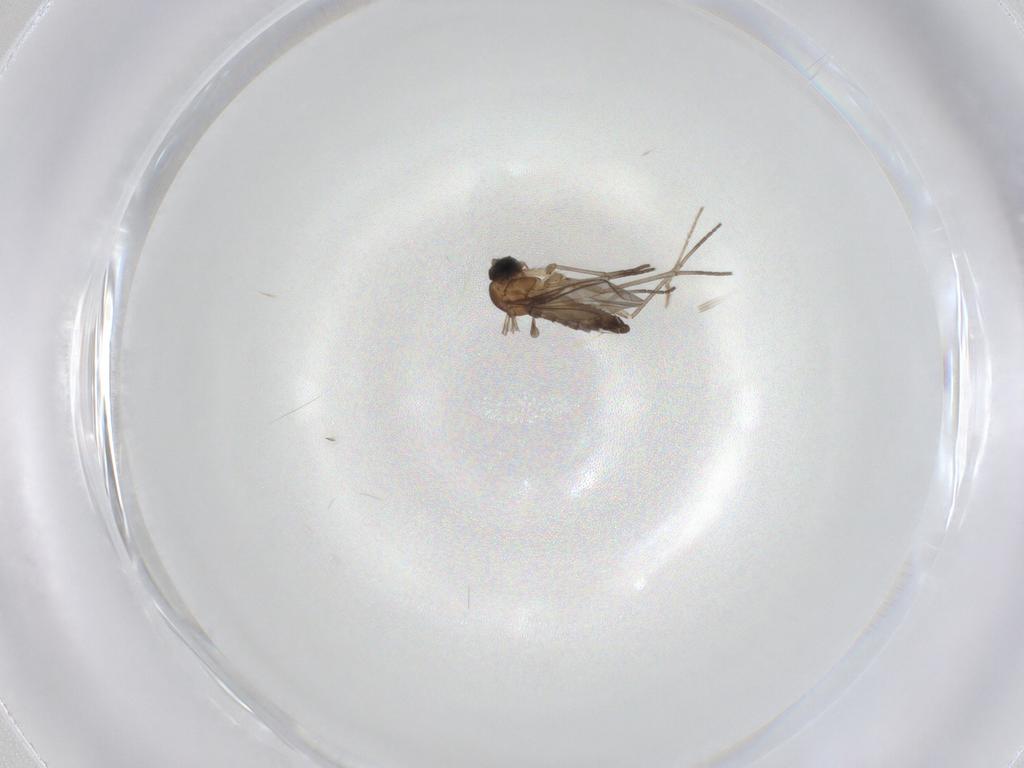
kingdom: Animalia
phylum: Arthropoda
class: Insecta
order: Diptera
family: Sciaridae
